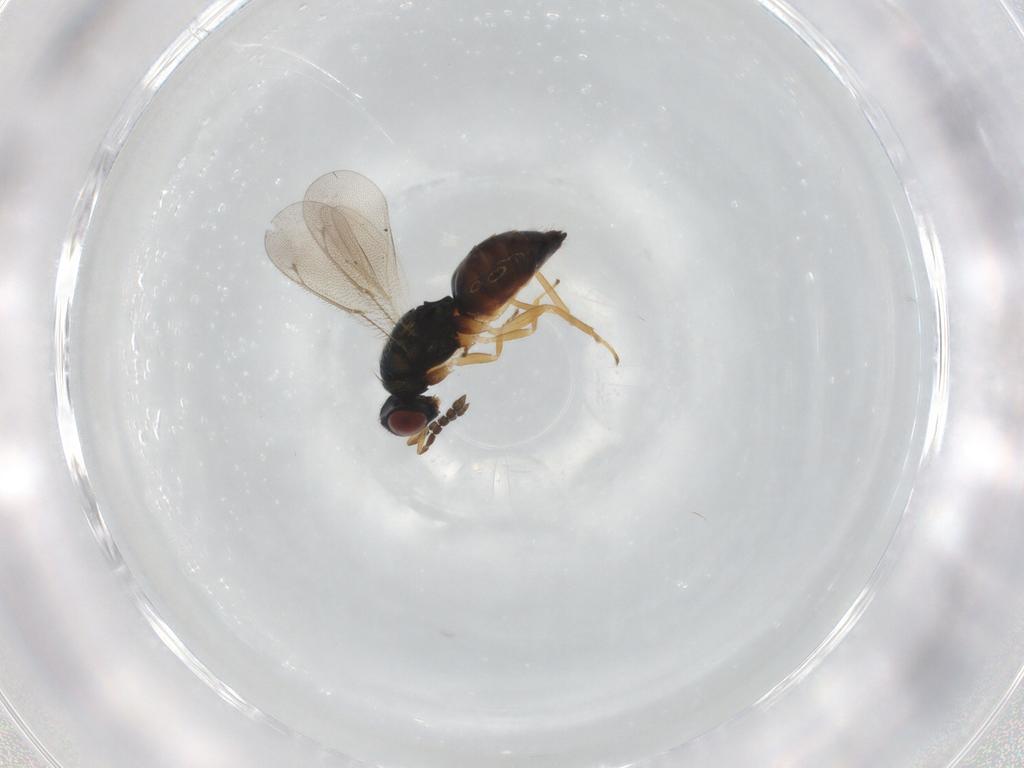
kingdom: Animalia
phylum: Arthropoda
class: Insecta
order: Hymenoptera
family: Eulophidae
